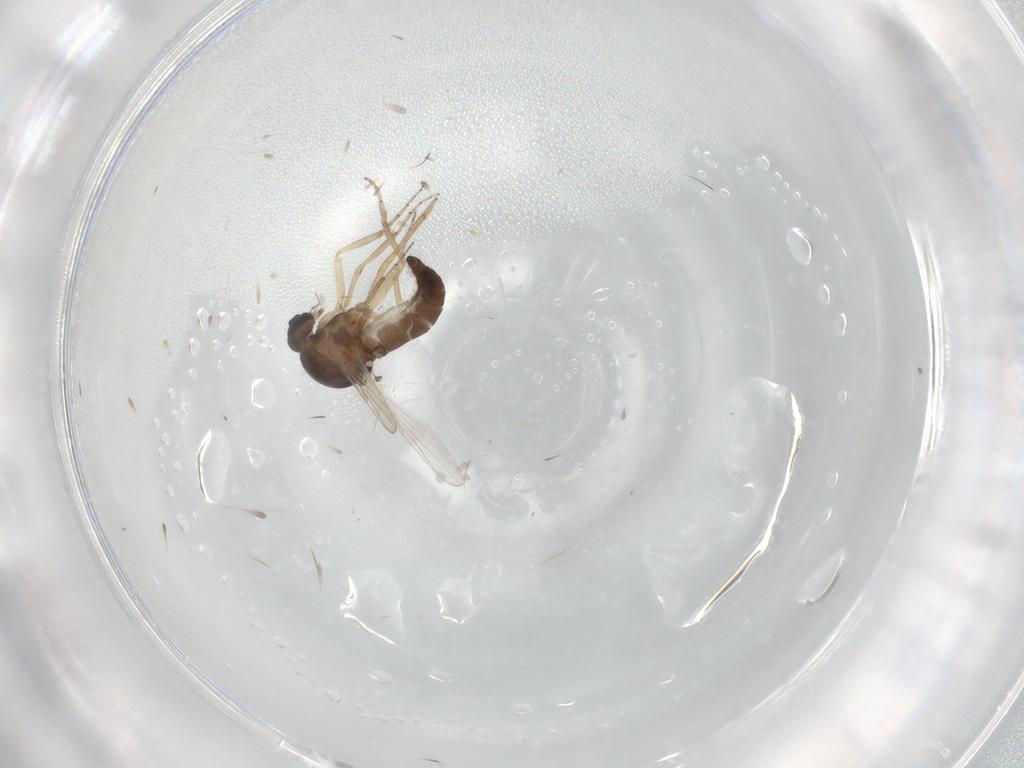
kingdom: Animalia
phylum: Arthropoda
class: Insecta
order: Diptera
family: Ceratopogonidae
